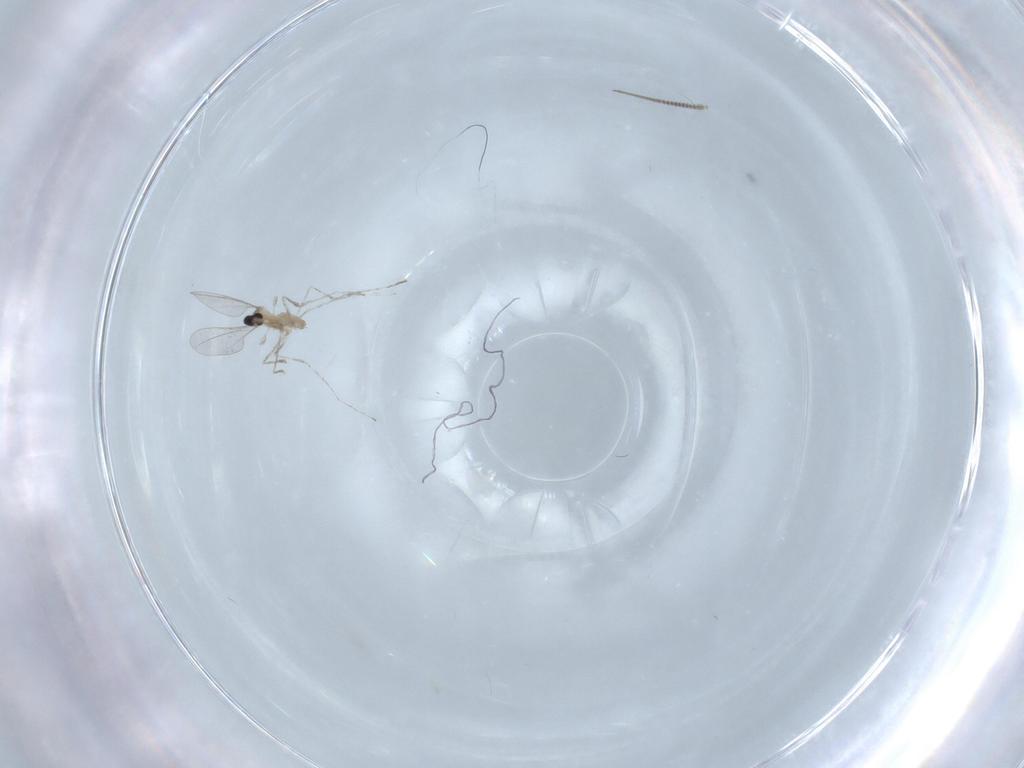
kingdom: Animalia
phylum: Arthropoda
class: Insecta
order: Diptera
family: Cecidomyiidae
